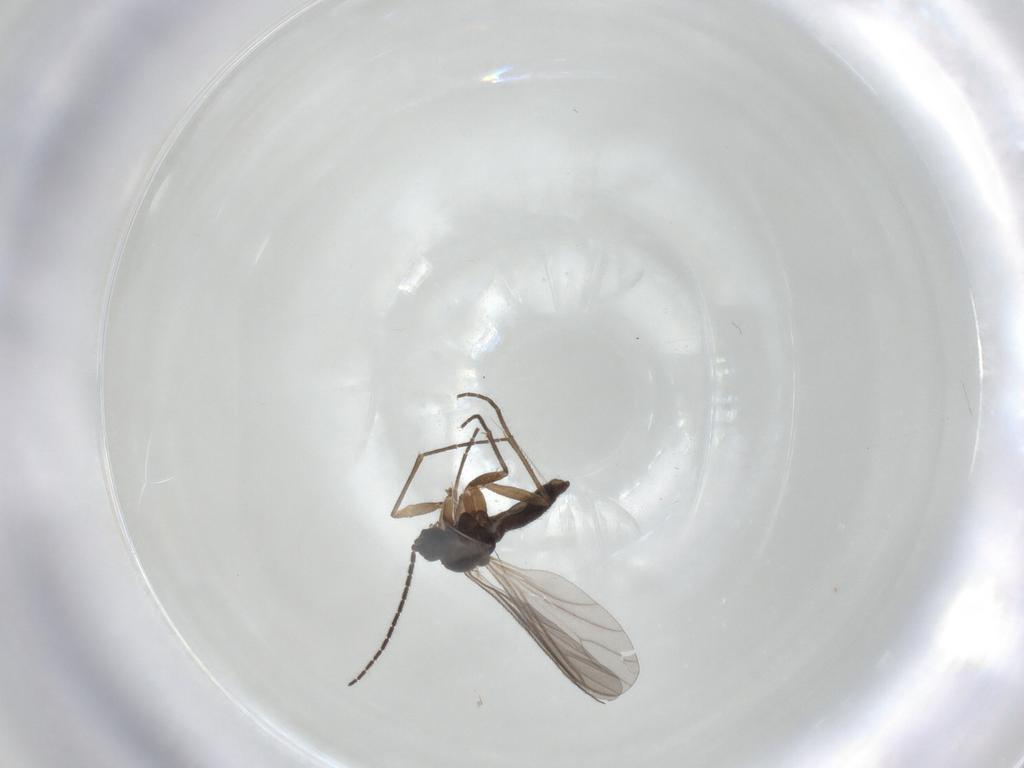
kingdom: Animalia
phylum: Arthropoda
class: Insecta
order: Diptera
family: Sciaridae
